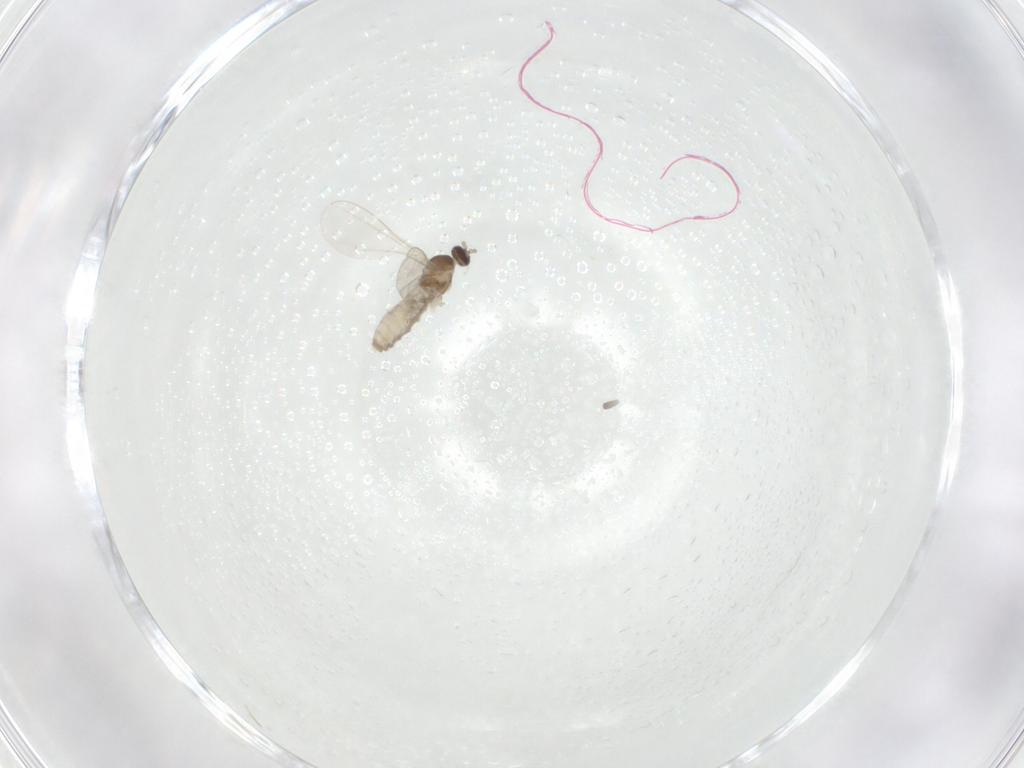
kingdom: Animalia
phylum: Arthropoda
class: Insecta
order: Diptera
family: Cecidomyiidae
